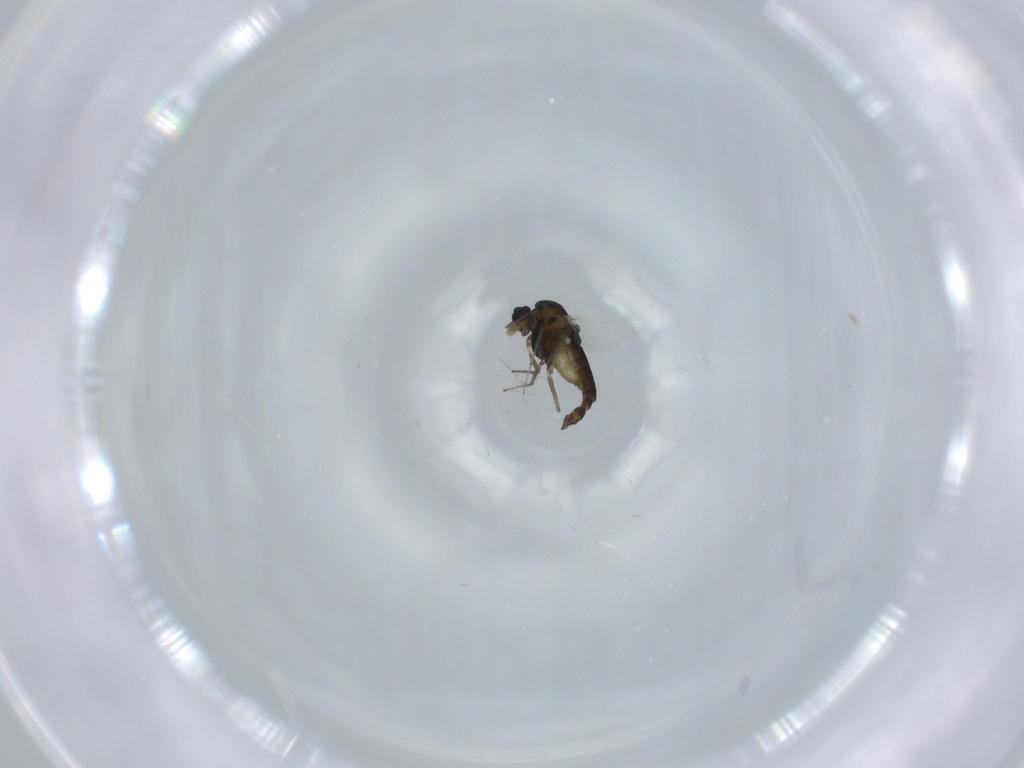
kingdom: Animalia
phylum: Arthropoda
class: Insecta
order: Diptera
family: Chironomidae
